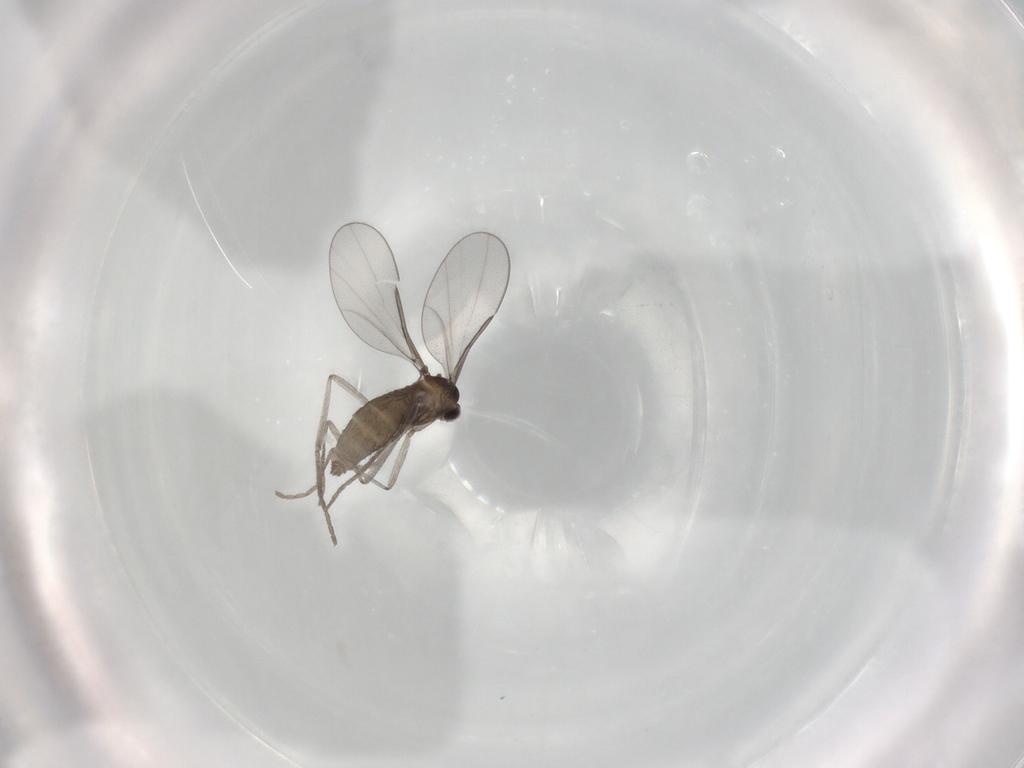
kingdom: Animalia
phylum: Arthropoda
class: Insecta
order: Diptera
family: Cecidomyiidae
